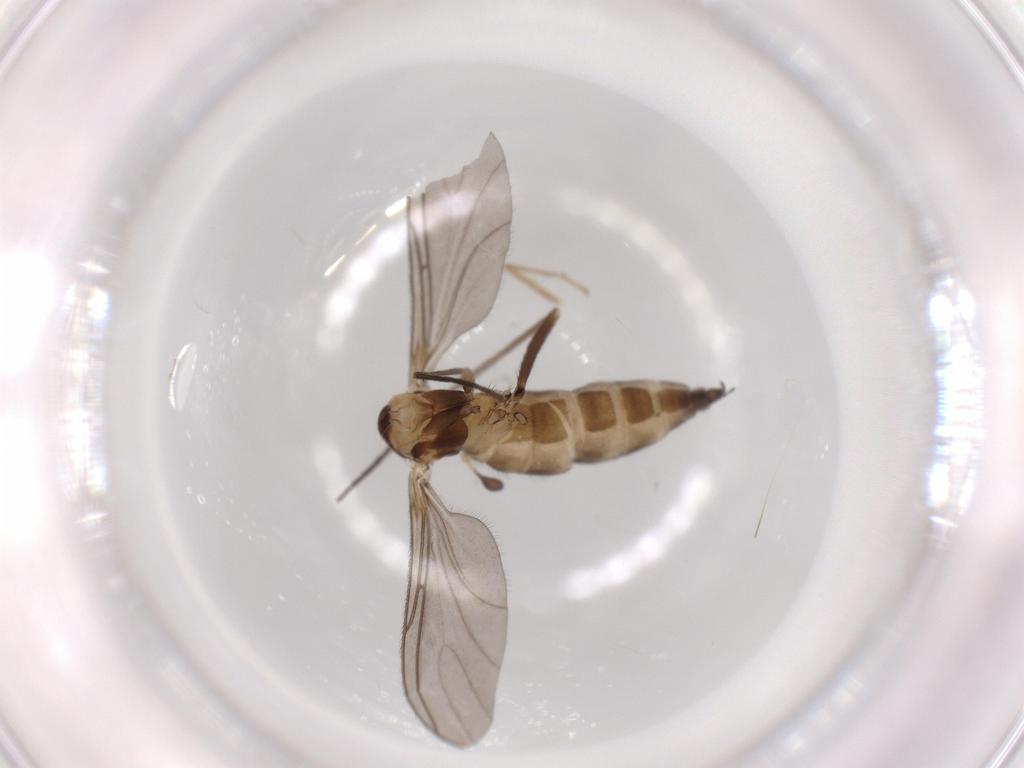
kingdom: Animalia
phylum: Arthropoda
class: Insecta
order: Diptera
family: Sciaridae
